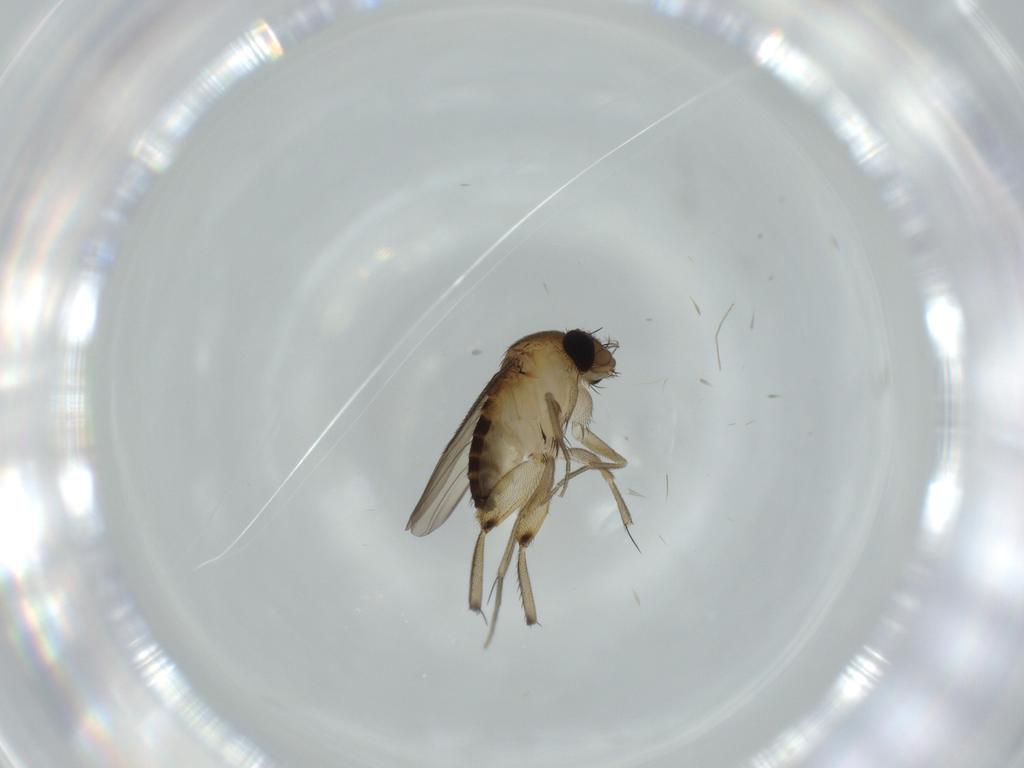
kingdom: Animalia
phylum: Arthropoda
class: Insecta
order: Diptera
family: Phoridae
